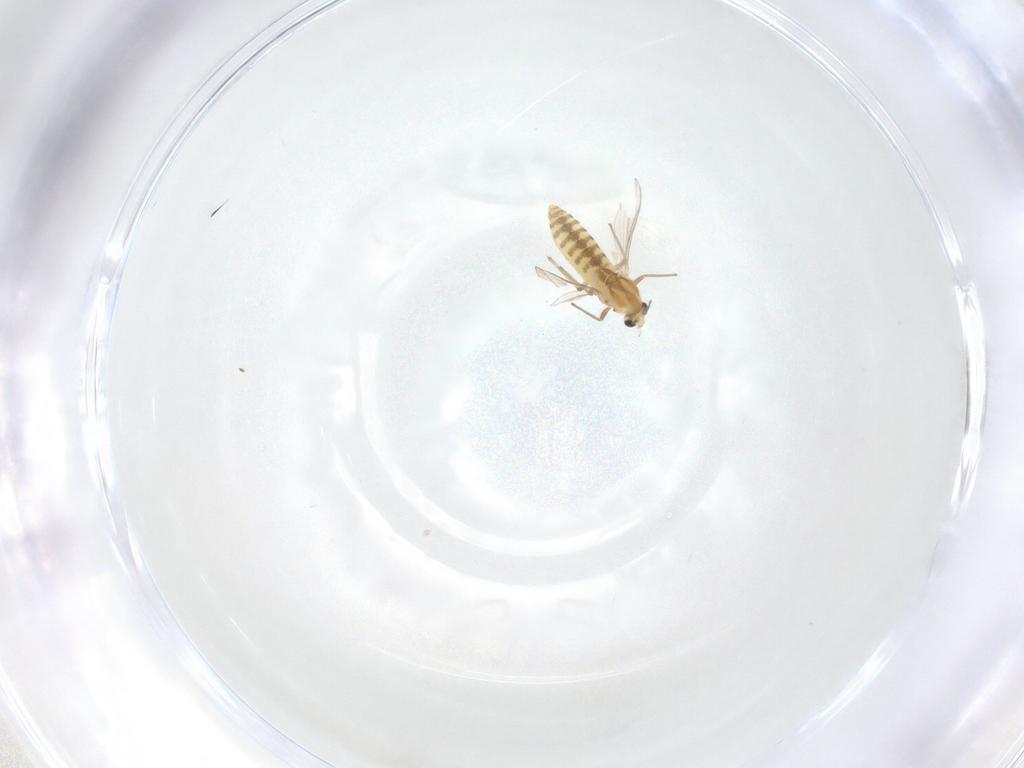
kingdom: Animalia
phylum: Arthropoda
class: Insecta
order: Diptera
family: Chironomidae
